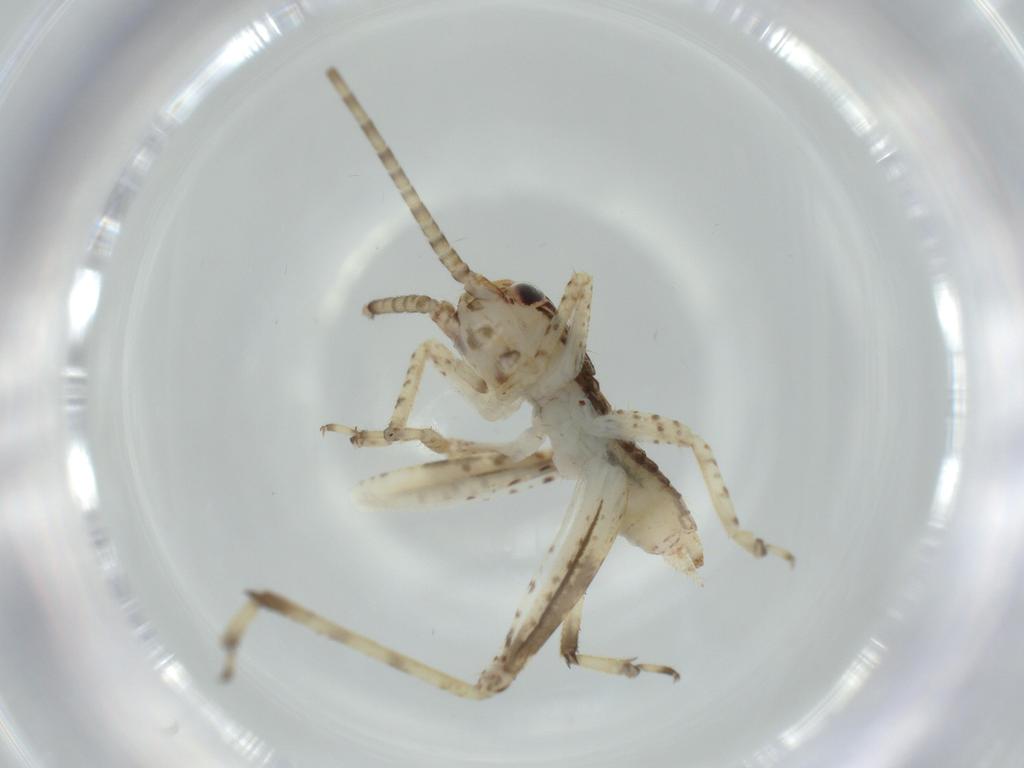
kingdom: Animalia
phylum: Arthropoda
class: Insecta
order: Orthoptera
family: Gryllidae
